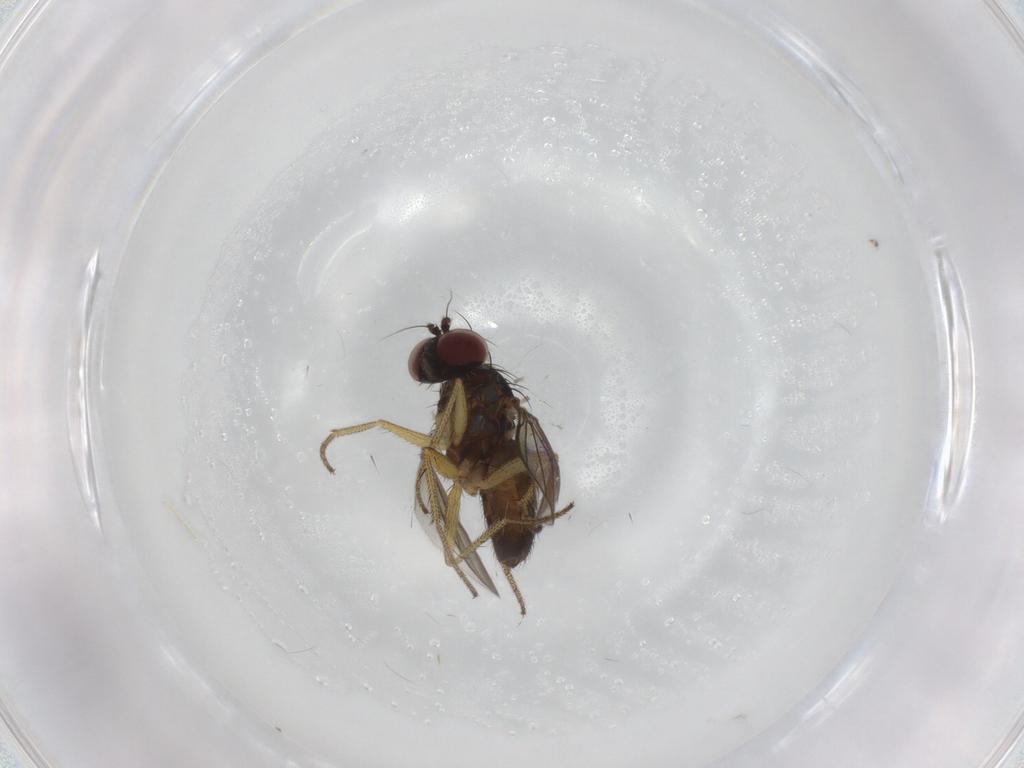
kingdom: Animalia
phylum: Arthropoda
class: Insecta
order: Diptera
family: Dolichopodidae
